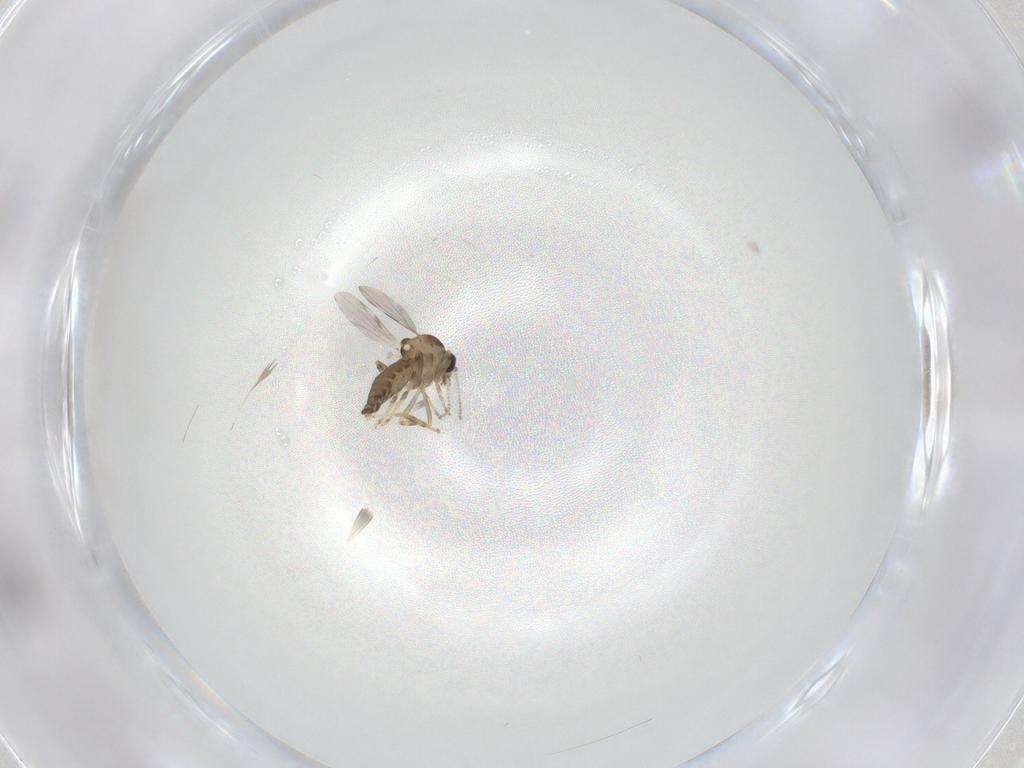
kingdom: Animalia
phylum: Arthropoda
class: Insecta
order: Diptera
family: Ceratopogonidae
